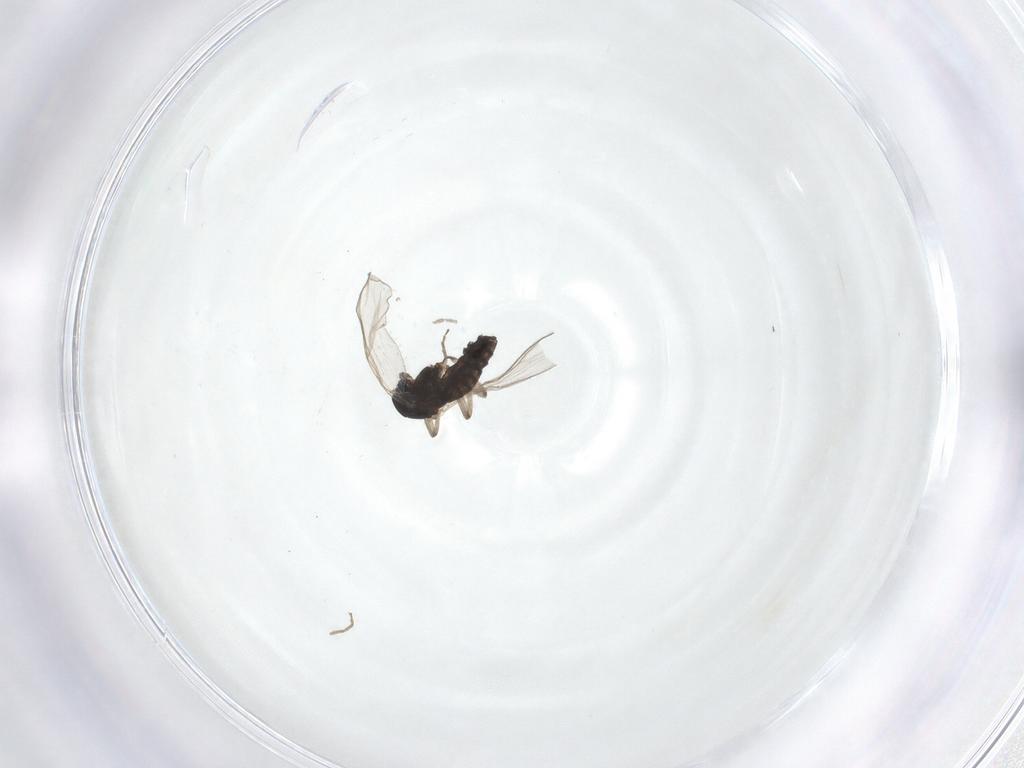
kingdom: Animalia
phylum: Arthropoda
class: Insecta
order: Diptera
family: Chironomidae
